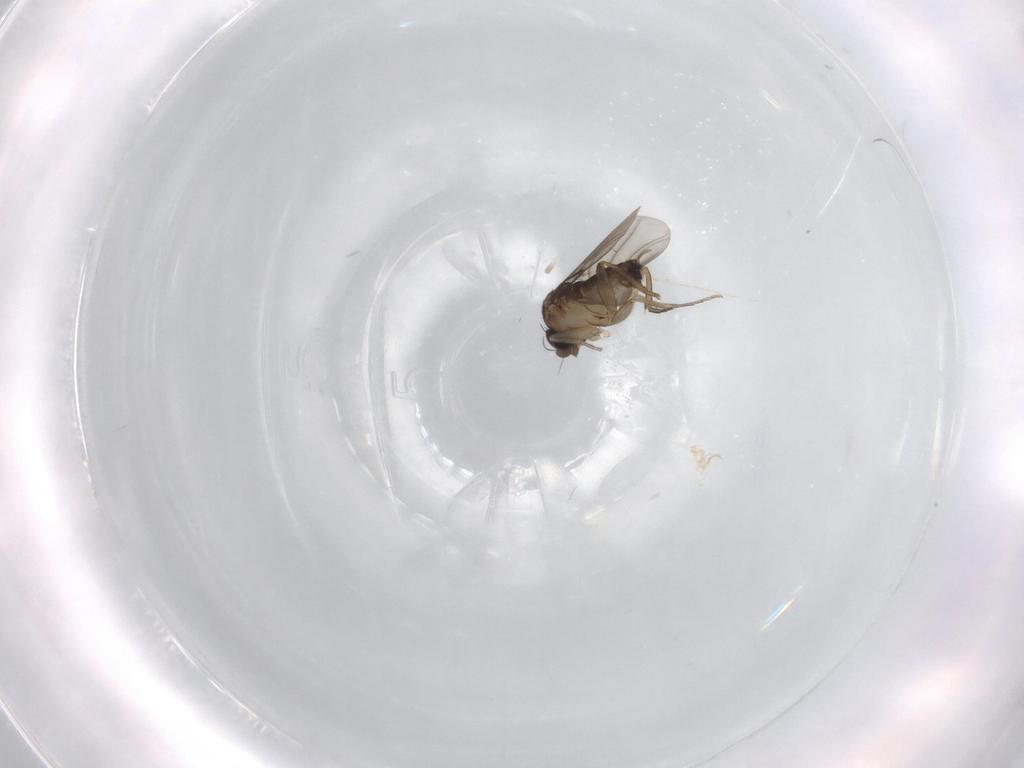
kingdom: Animalia
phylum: Arthropoda
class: Insecta
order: Diptera
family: Phoridae
